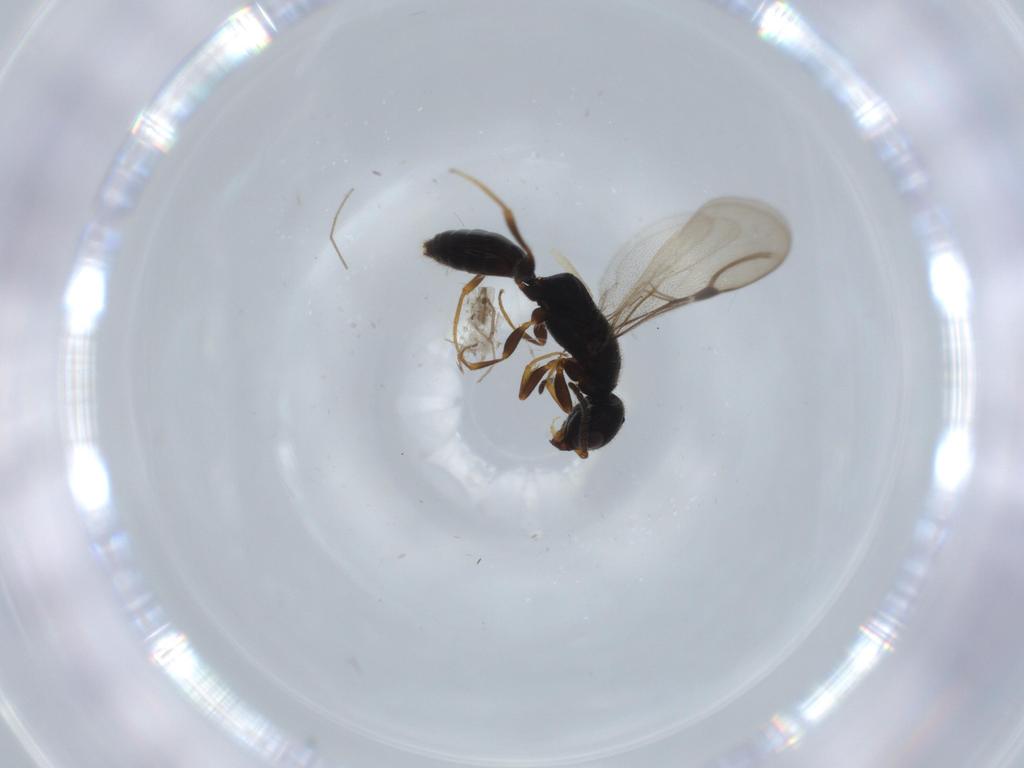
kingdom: Animalia
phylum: Arthropoda
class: Insecta
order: Hymenoptera
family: Bethylidae
